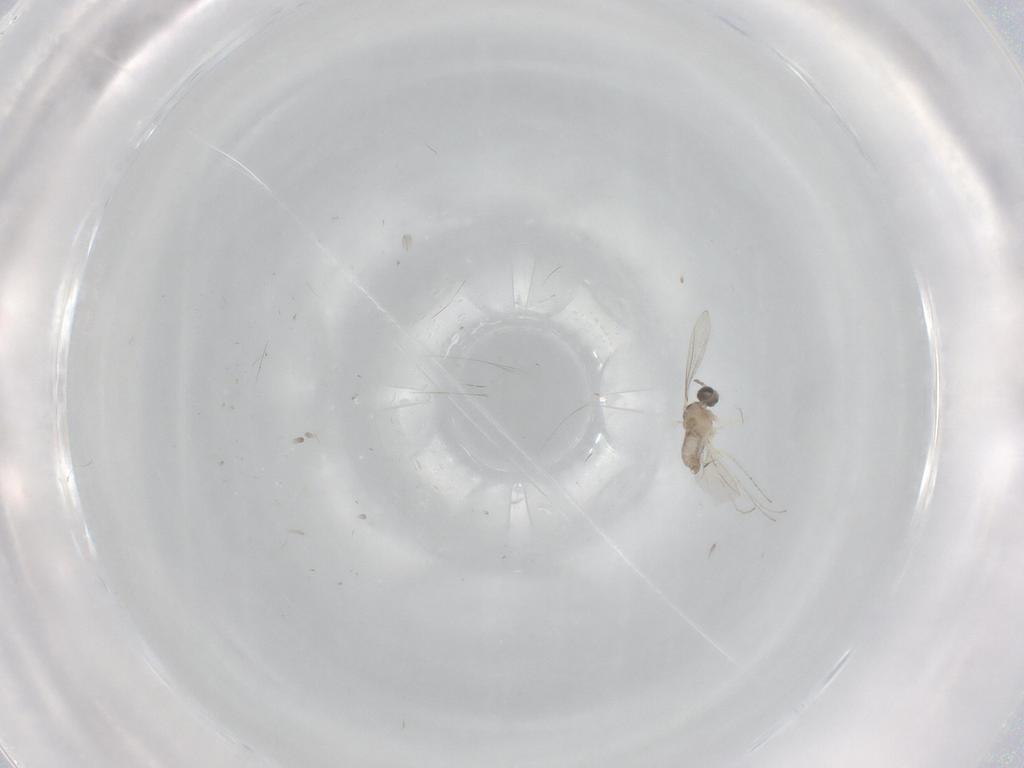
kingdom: Animalia
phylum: Arthropoda
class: Insecta
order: Diptera
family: Cecidomyiidae
